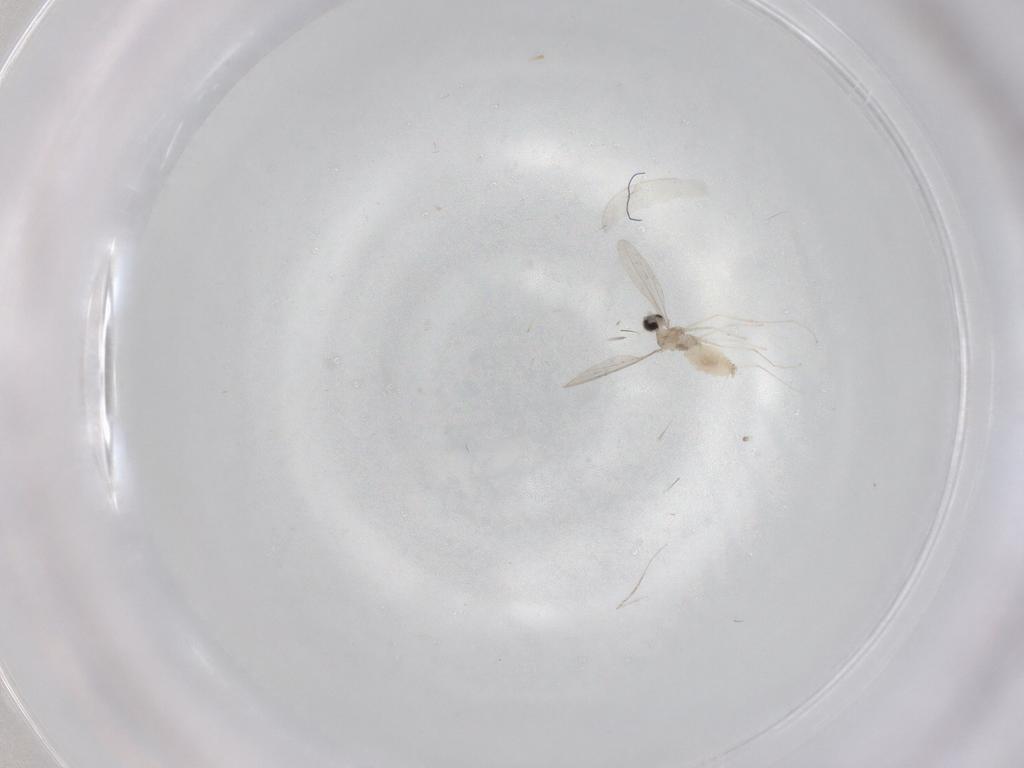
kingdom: Animalia
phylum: Arthropoda
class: Insecta
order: Diptera
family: Cecidomyiidae
